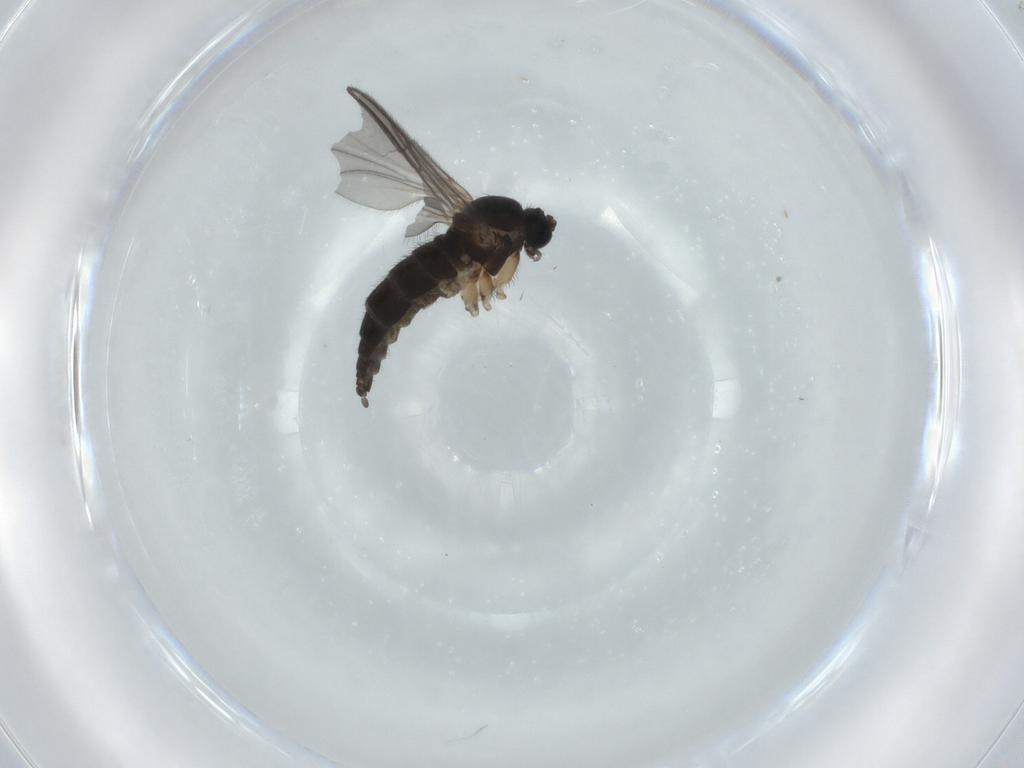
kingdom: Animalia
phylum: Arthropoda
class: Insecta
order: Diptera
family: Sciaridae
